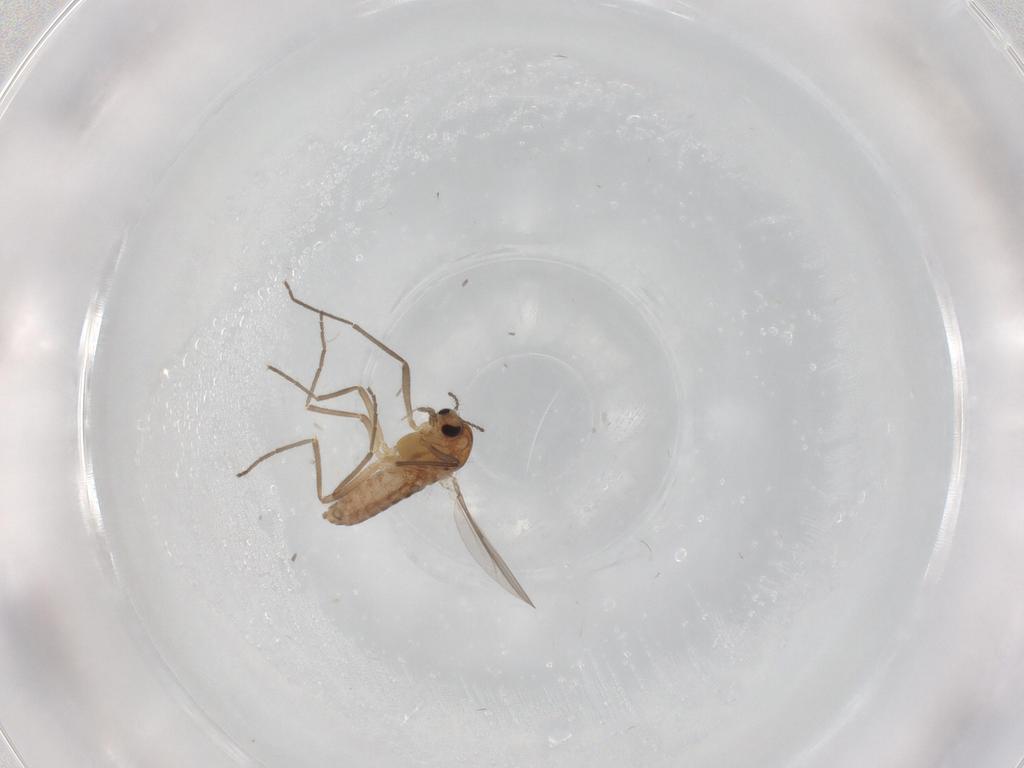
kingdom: Animalia
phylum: Arthropoda
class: Insecta
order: Diptera
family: Chironomidae
